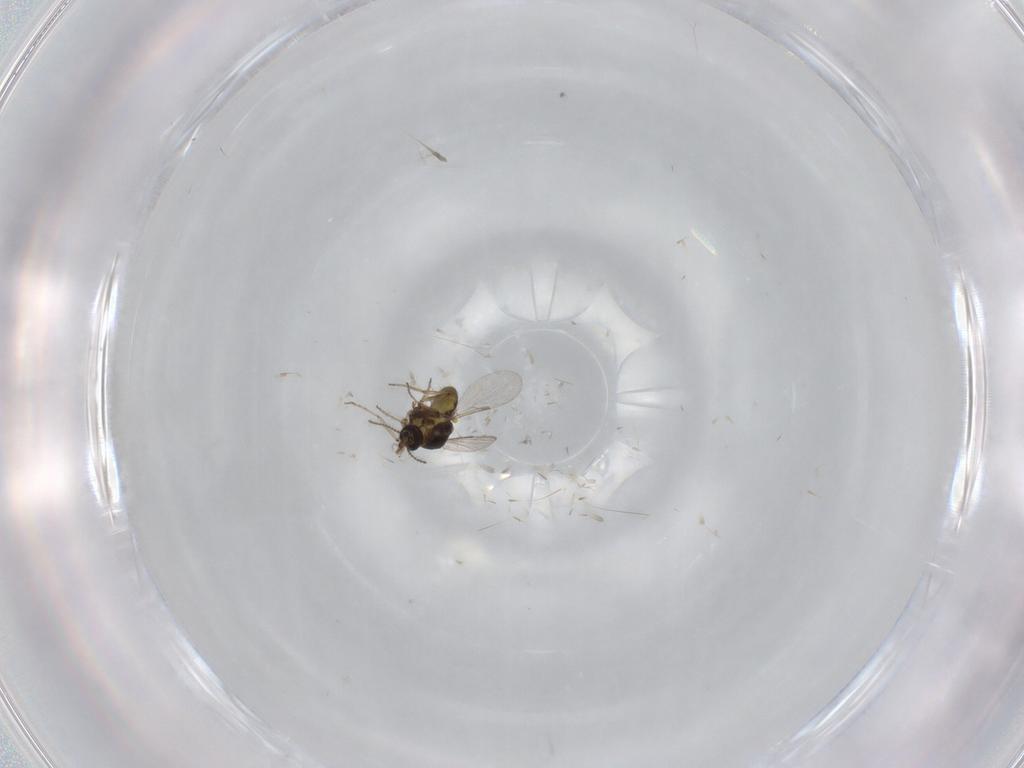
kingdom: Animalia
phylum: Arthropoda
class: Insecta
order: Diptera
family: Ceratopogonidae
